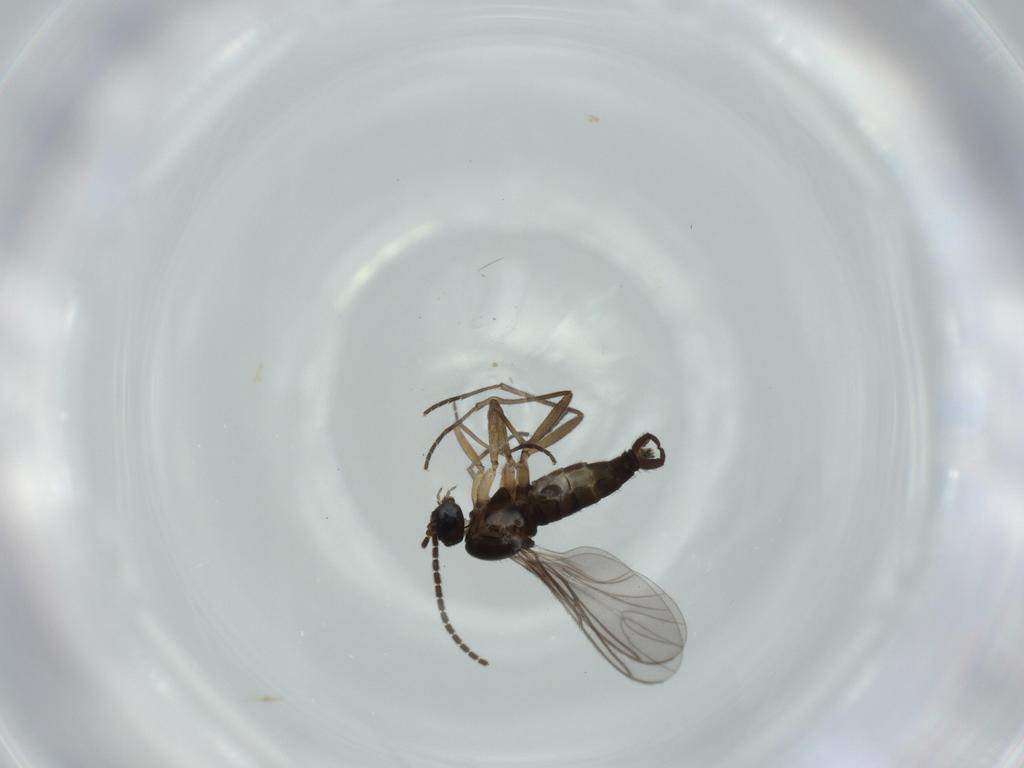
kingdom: Animalia
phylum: Arthropoda
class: Insecta
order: Diptera
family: Sciaridae
